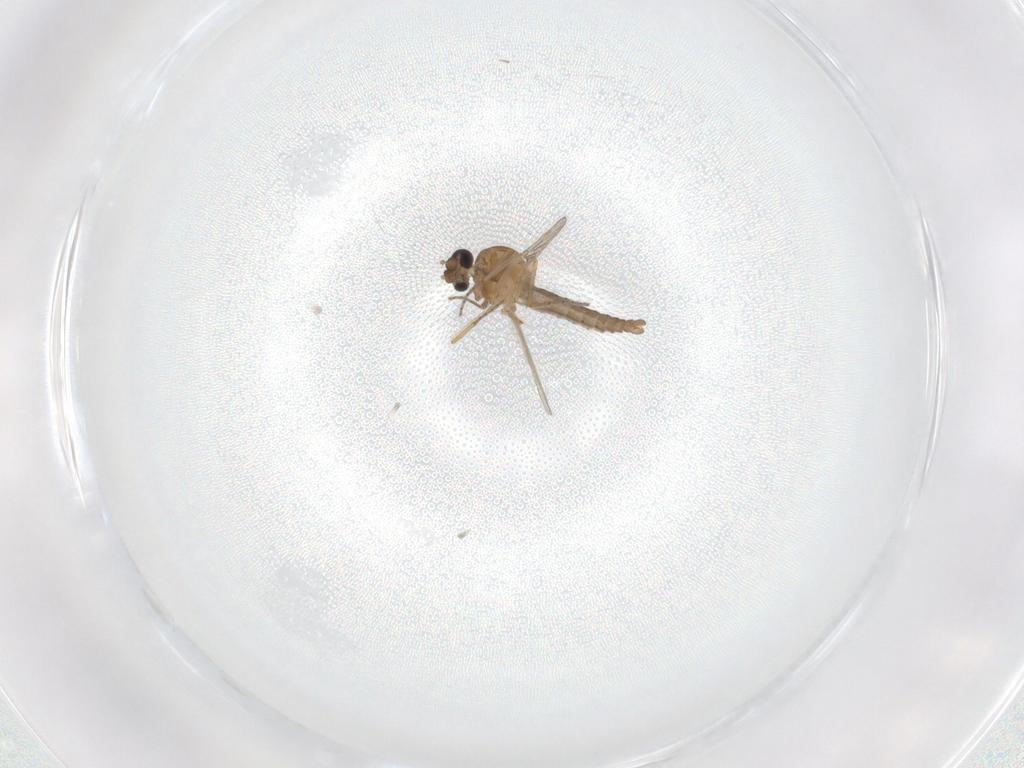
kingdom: Animalia
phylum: Arthropoda
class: Insecta
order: Diptera
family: Ceratopogonidae
